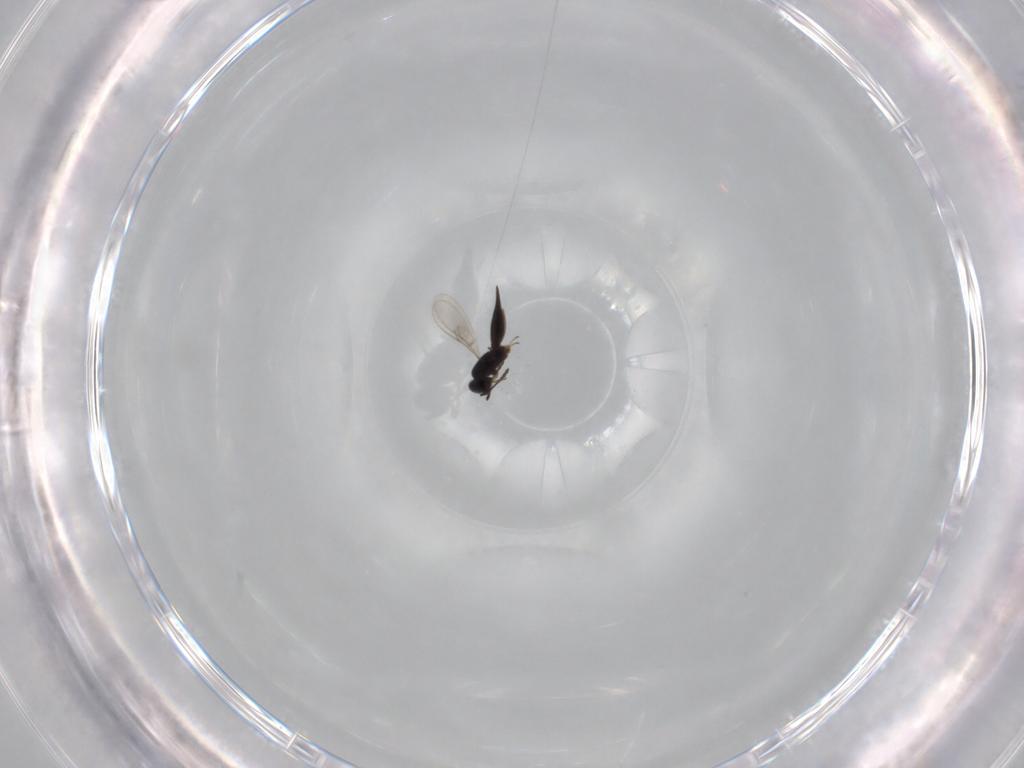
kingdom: Animalia
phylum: Arthropoda
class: Insecta
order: Hymenoptera
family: Scelionidae
